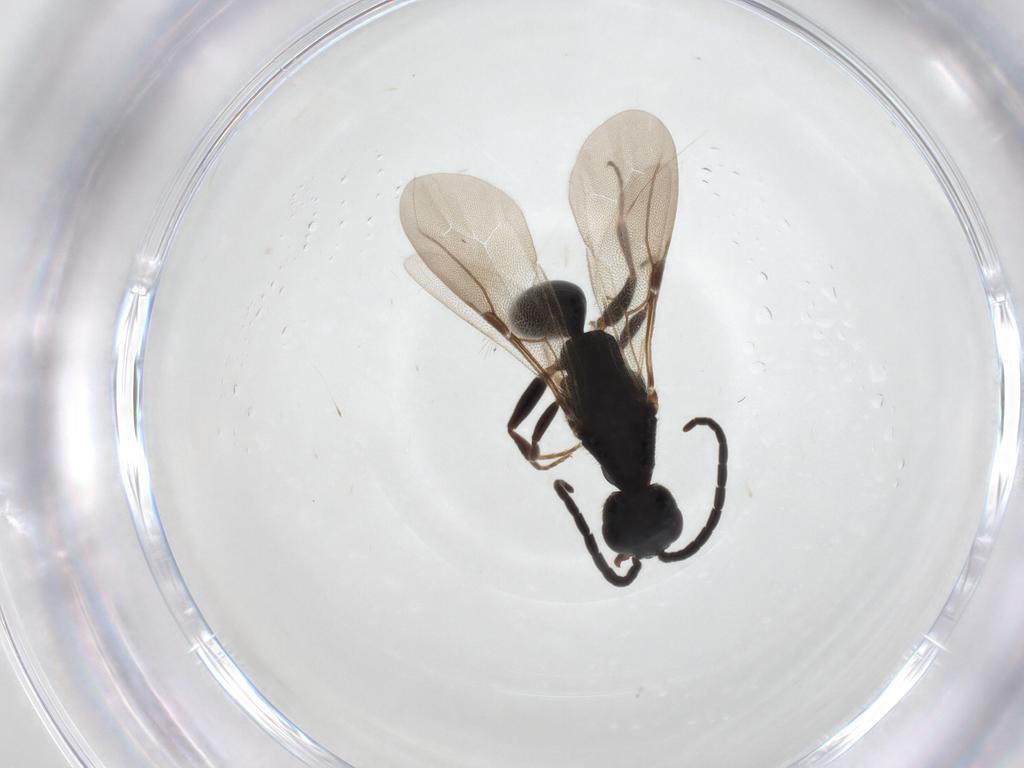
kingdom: Animalia
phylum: Arthropoda
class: Insecta
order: Hymenoptera
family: Bethylidae
